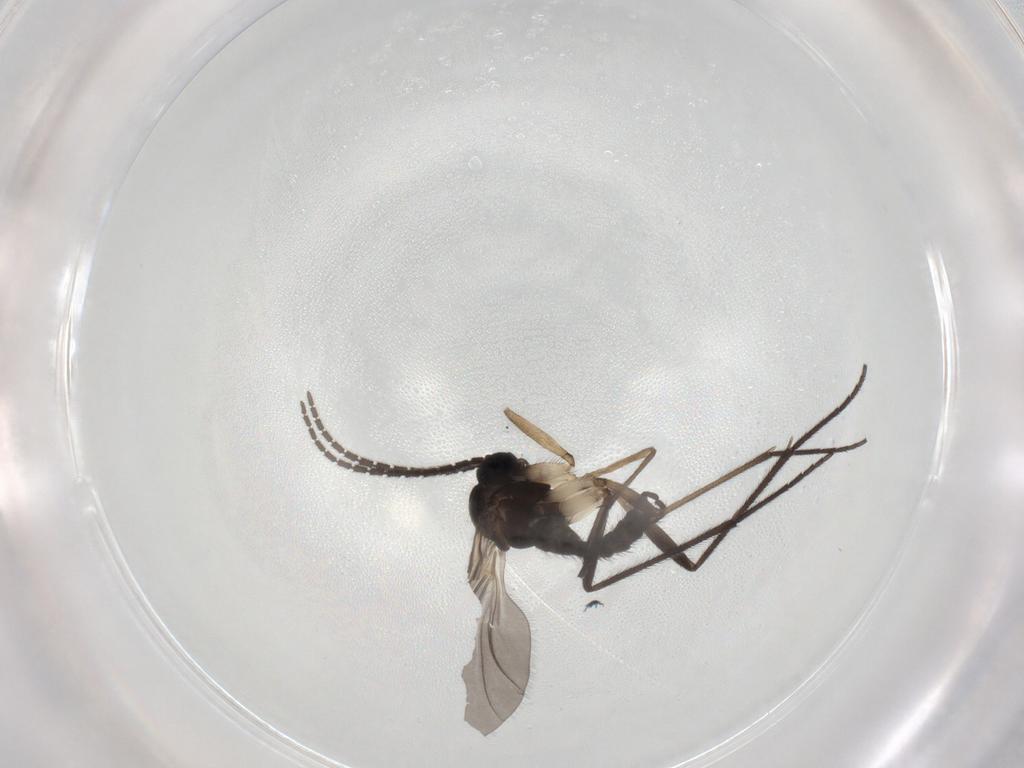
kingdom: Animalia
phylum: Arthropoda
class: Insecta
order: Diptera
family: Sciaridae
